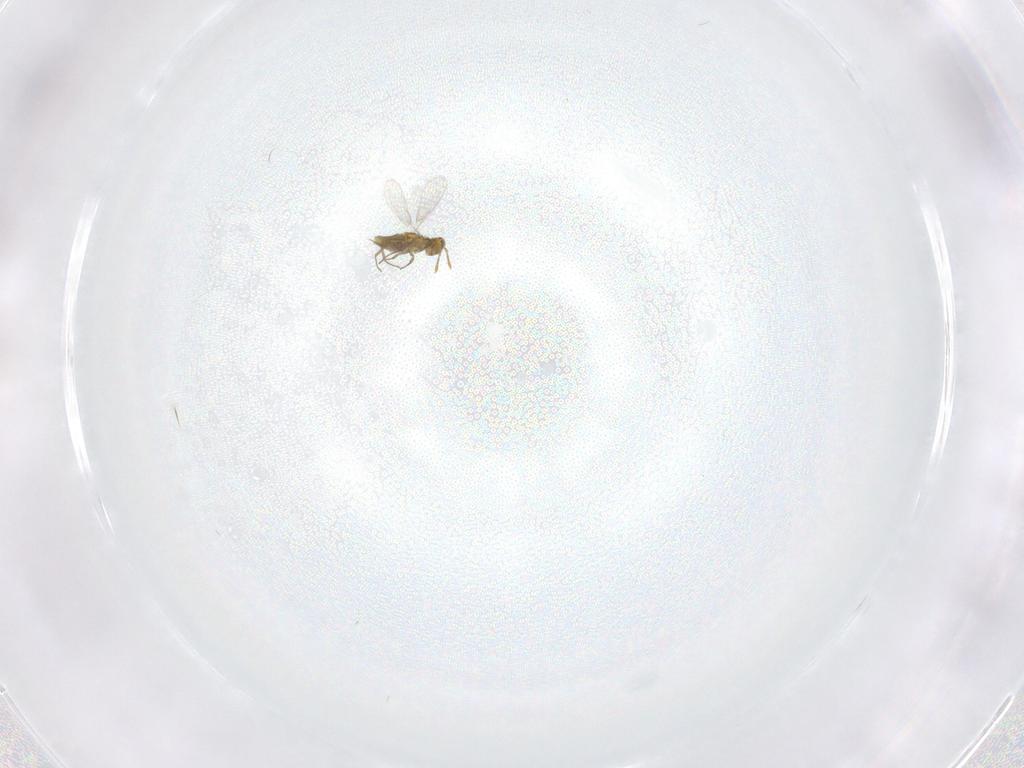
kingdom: Animalia
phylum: Arthropoda
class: Insecta
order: Hymenoptera
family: Aphelinidae
